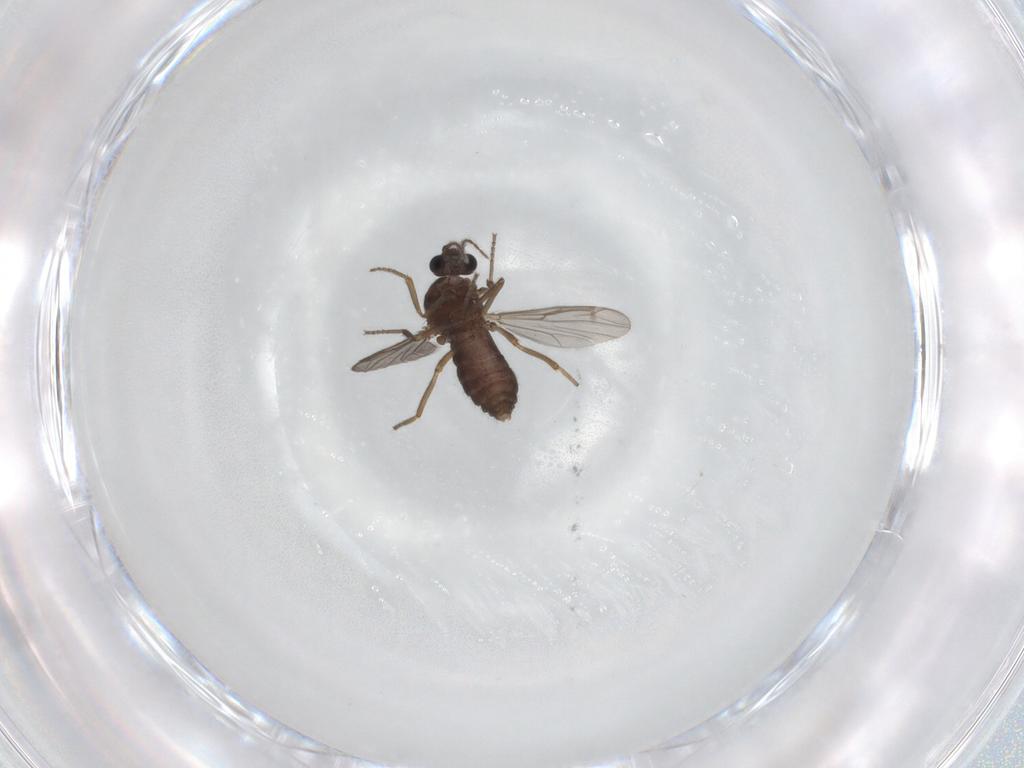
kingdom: Animalia
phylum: Arthropoda
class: Insecta
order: Diptera
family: Ceratopogonidae
